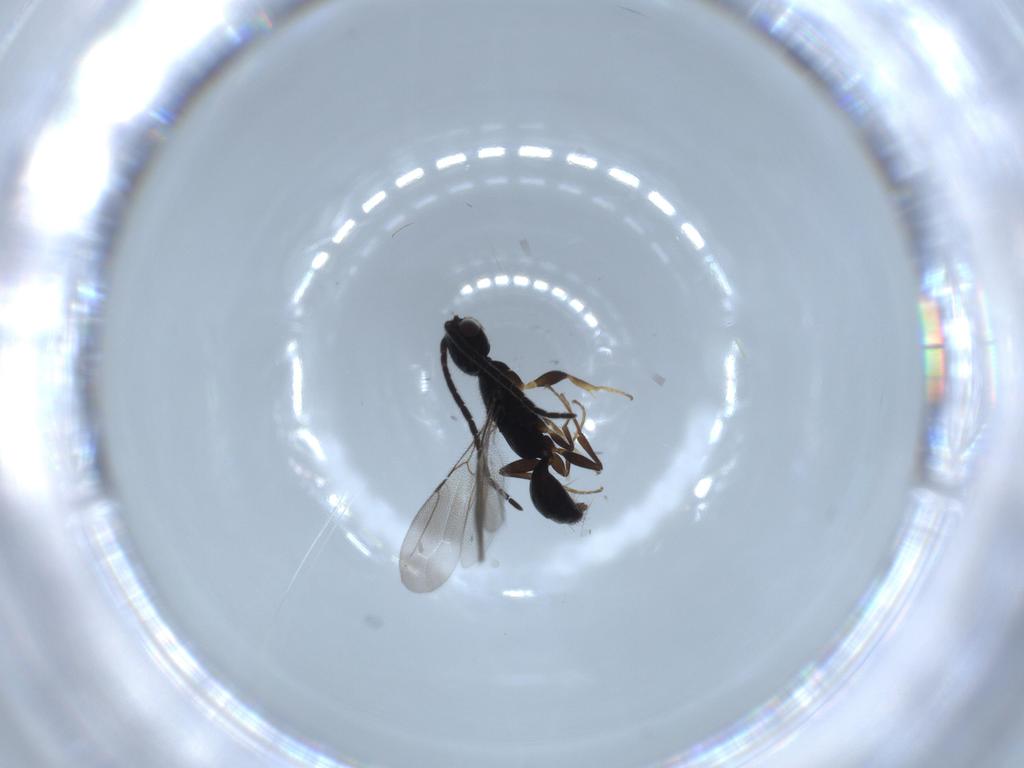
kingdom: Animalia
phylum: Arthropoda
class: Insecta
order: Hymenoptera
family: Bethylidae
